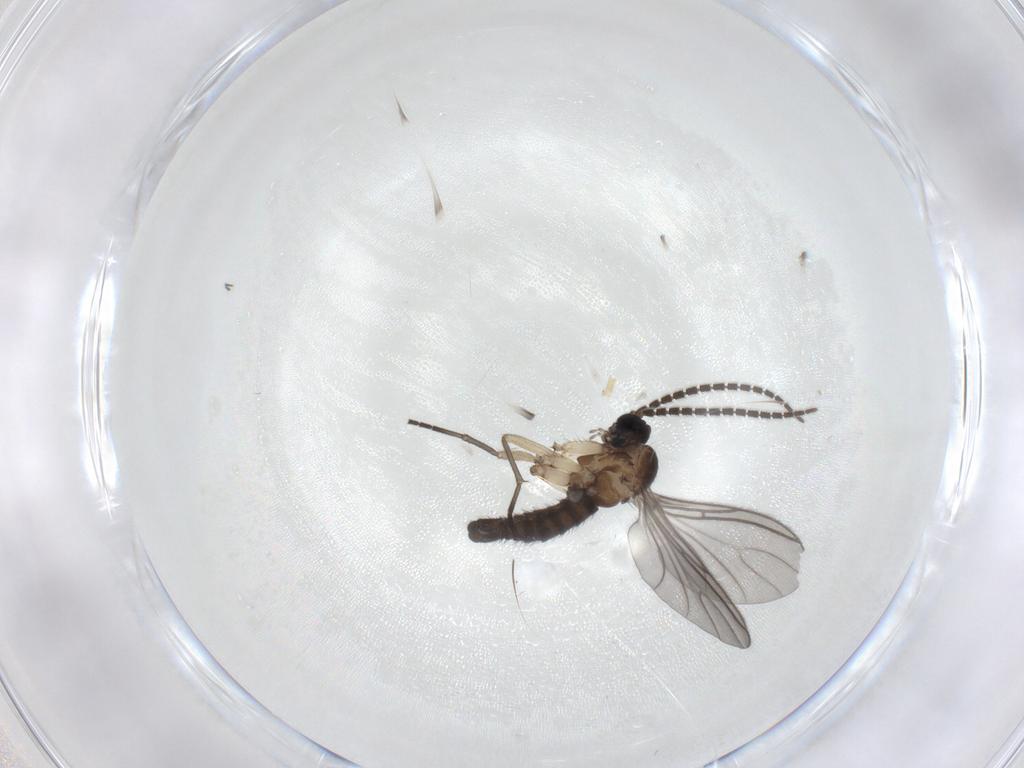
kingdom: Animalia
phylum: Arthropoda
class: Insecta
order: Diptera
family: Sciaridae
